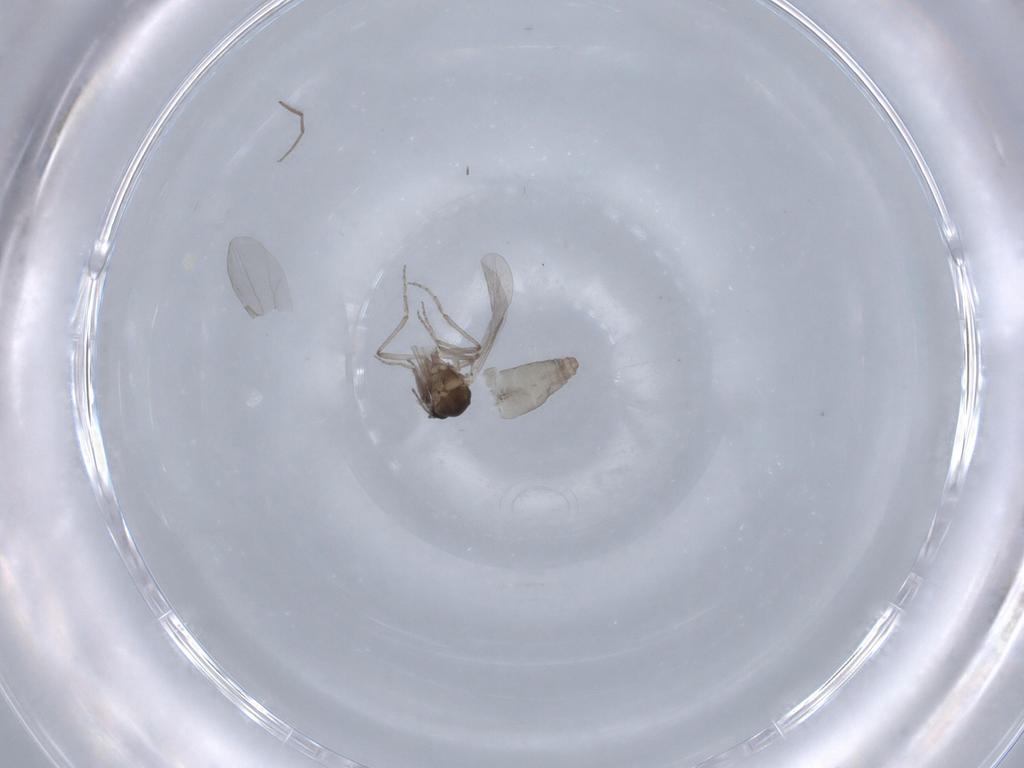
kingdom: Animalia
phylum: Arthropoda
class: Insecta
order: Diptera
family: Ceratopogonidae
